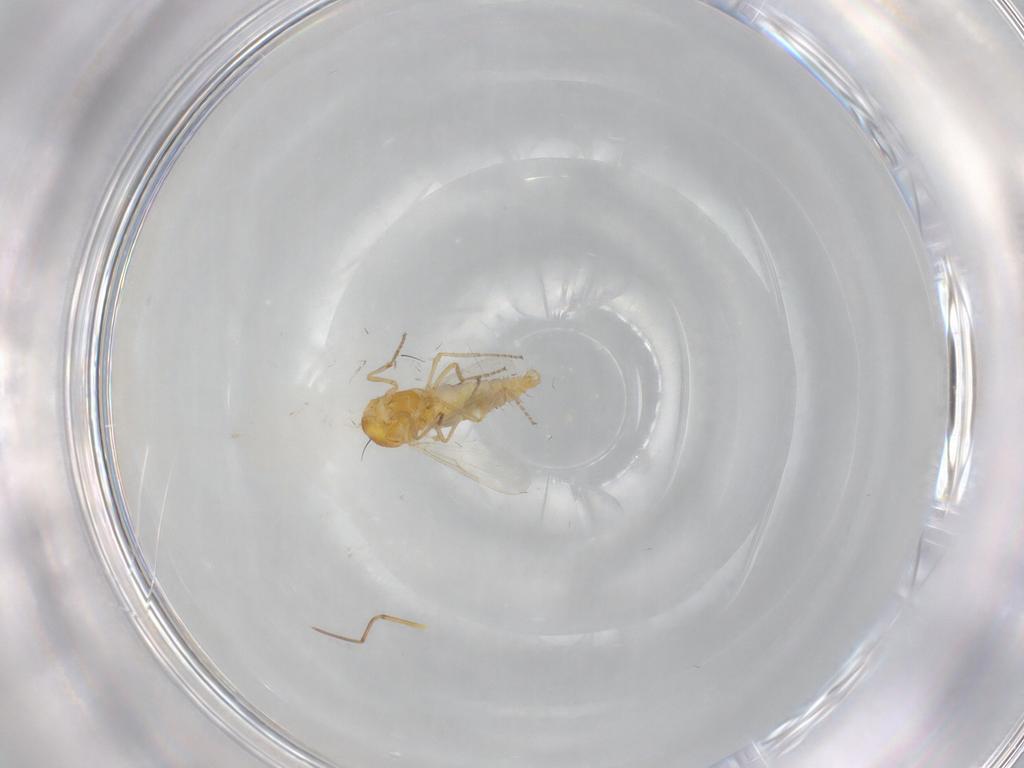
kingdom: Animalia
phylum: Arthropoda
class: Insecta
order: Diptera
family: Ceratopogonidae
